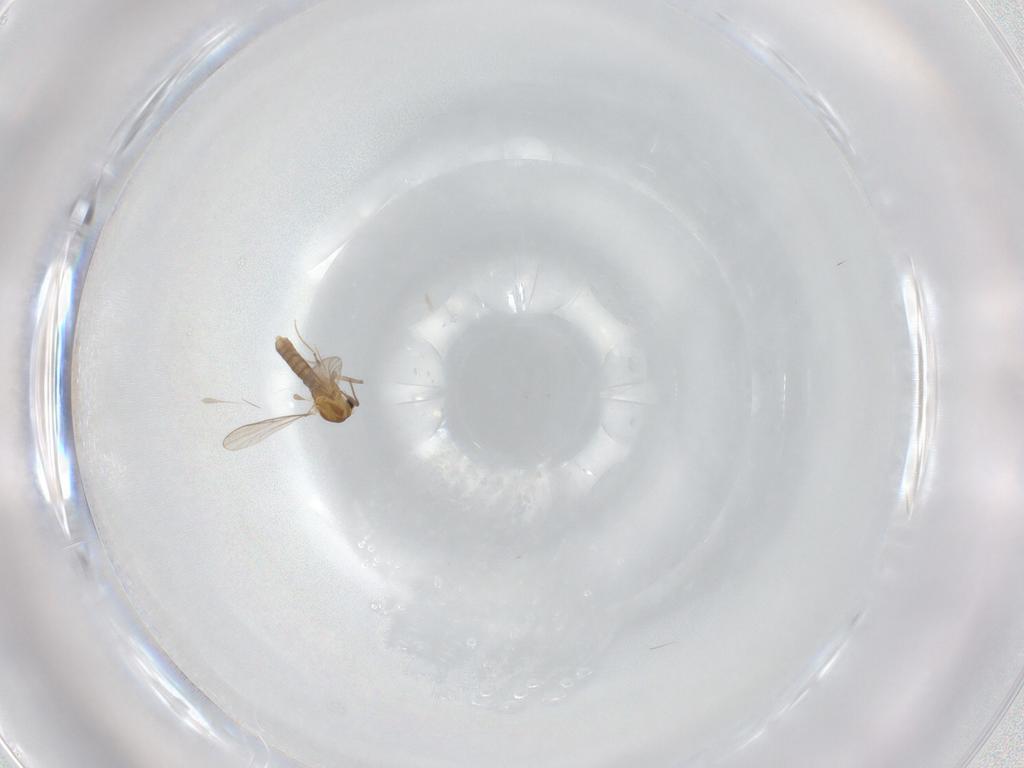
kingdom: Animalia
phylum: Arthropoda
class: Insecta
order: Diptera
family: Chironomidae
